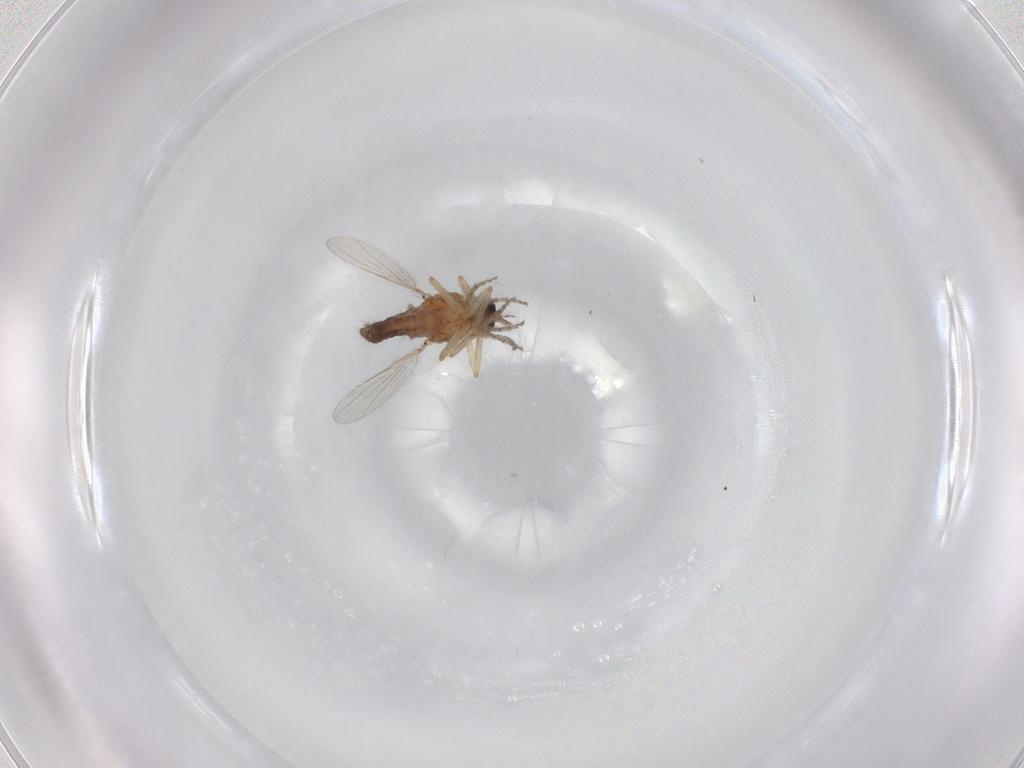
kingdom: Animalia
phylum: Arthropoda
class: Insecta
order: Diptera
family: Ceratopogonidae
